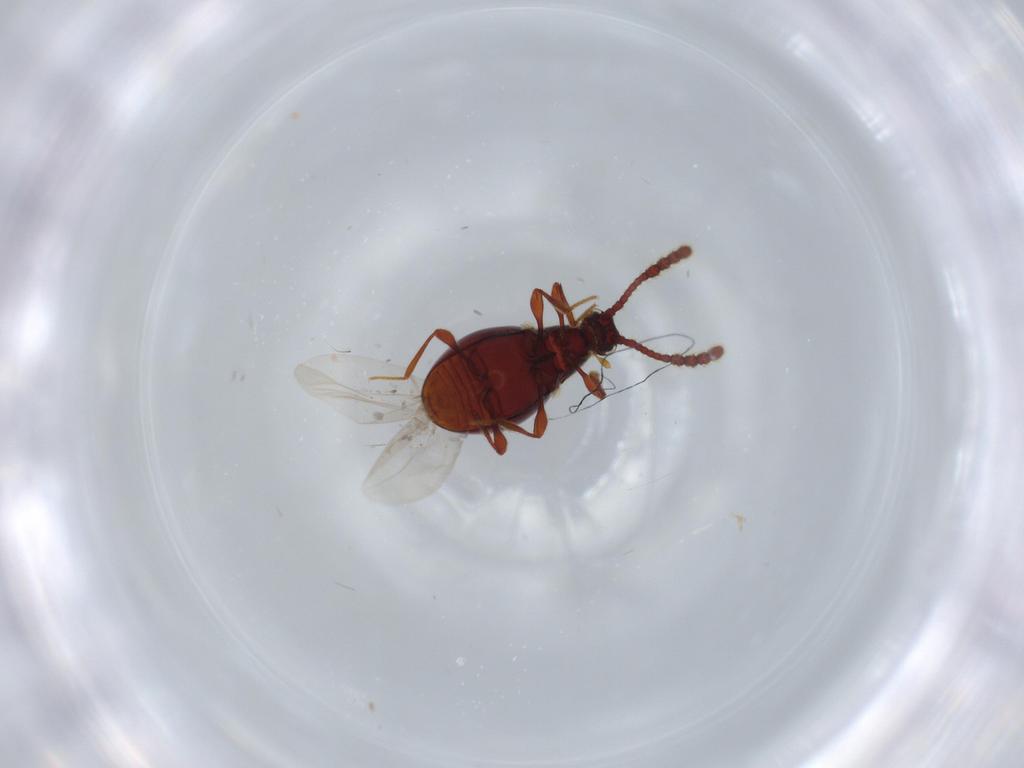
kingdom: Animalia
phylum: Arthropoda
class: Insecta
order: Coleoptera
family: Staphylinidae
